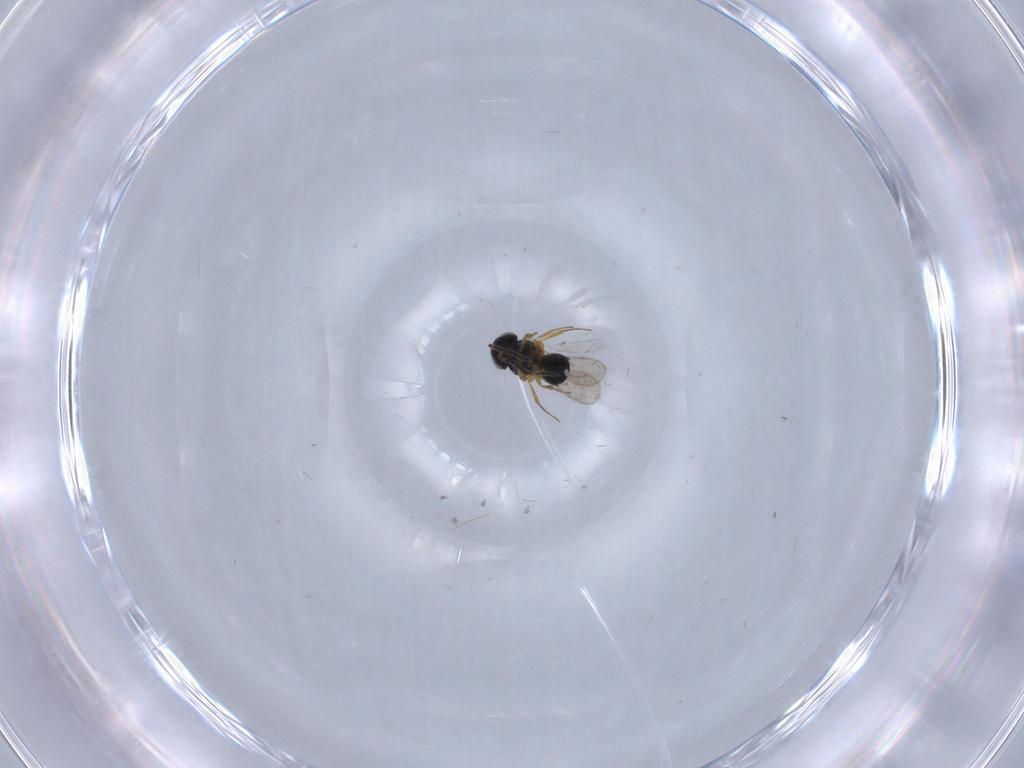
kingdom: Animalia
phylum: Arthropoda
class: Insecta
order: Hymenoptera
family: Scelionidae
